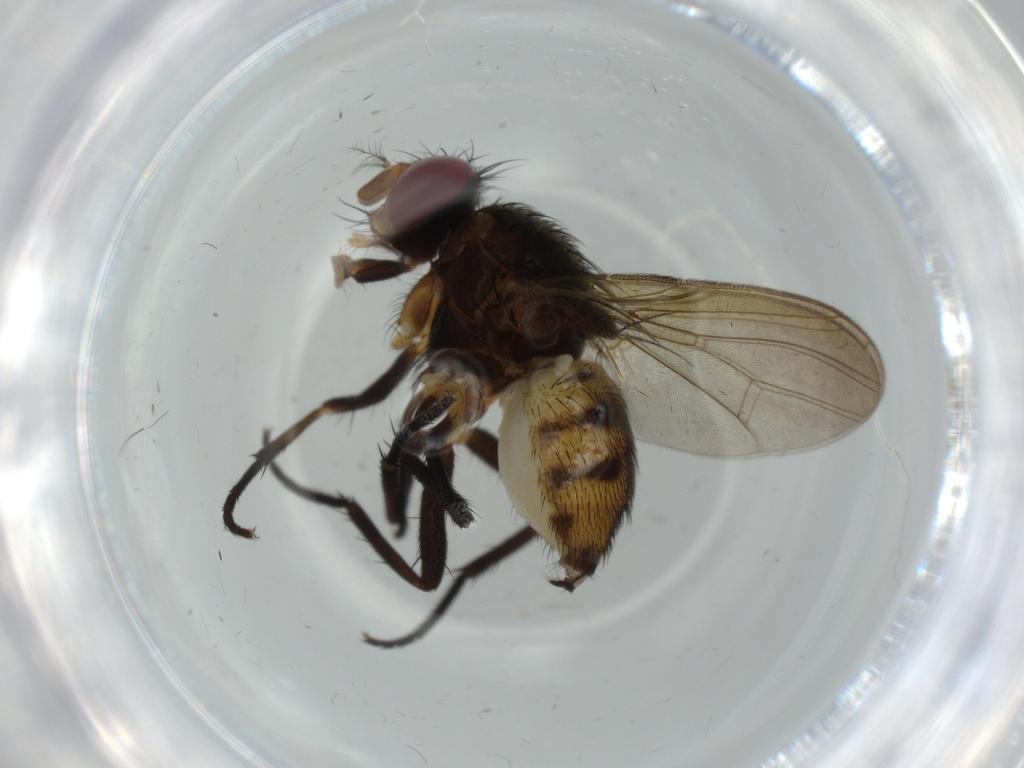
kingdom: Animalia
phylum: Arthropoda
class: Insecta
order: Diptera
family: Anthomyiidae
